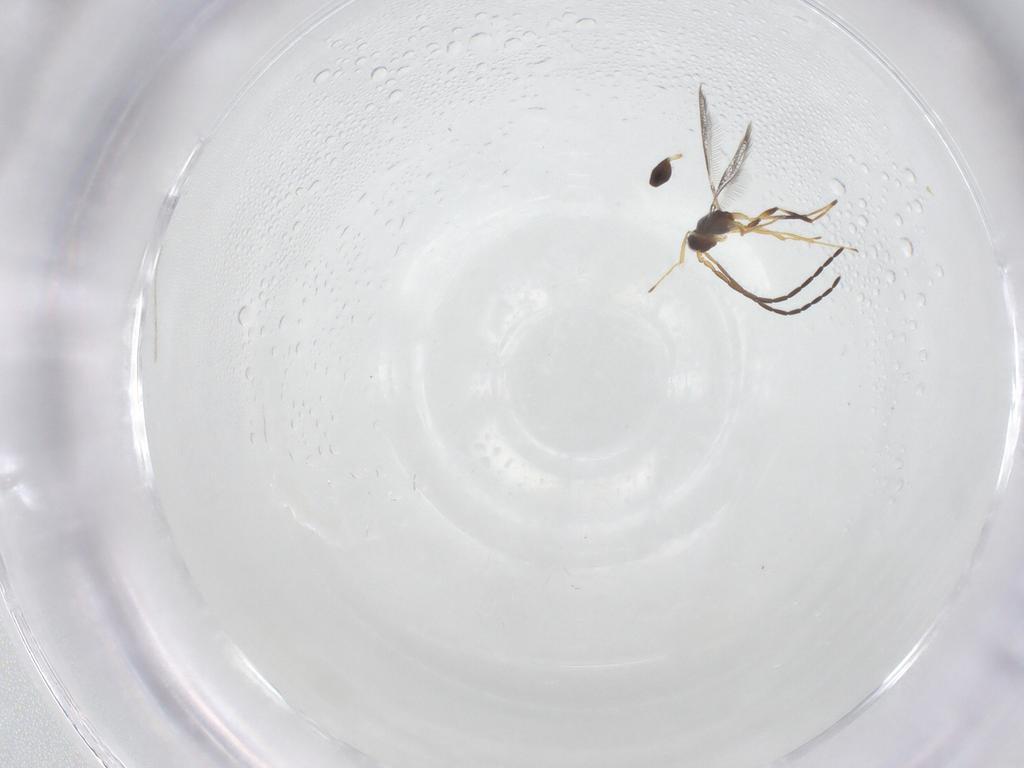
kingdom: Animalia
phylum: Arthropoda
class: Insecta
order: Hymenoptera
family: Mymaridae
